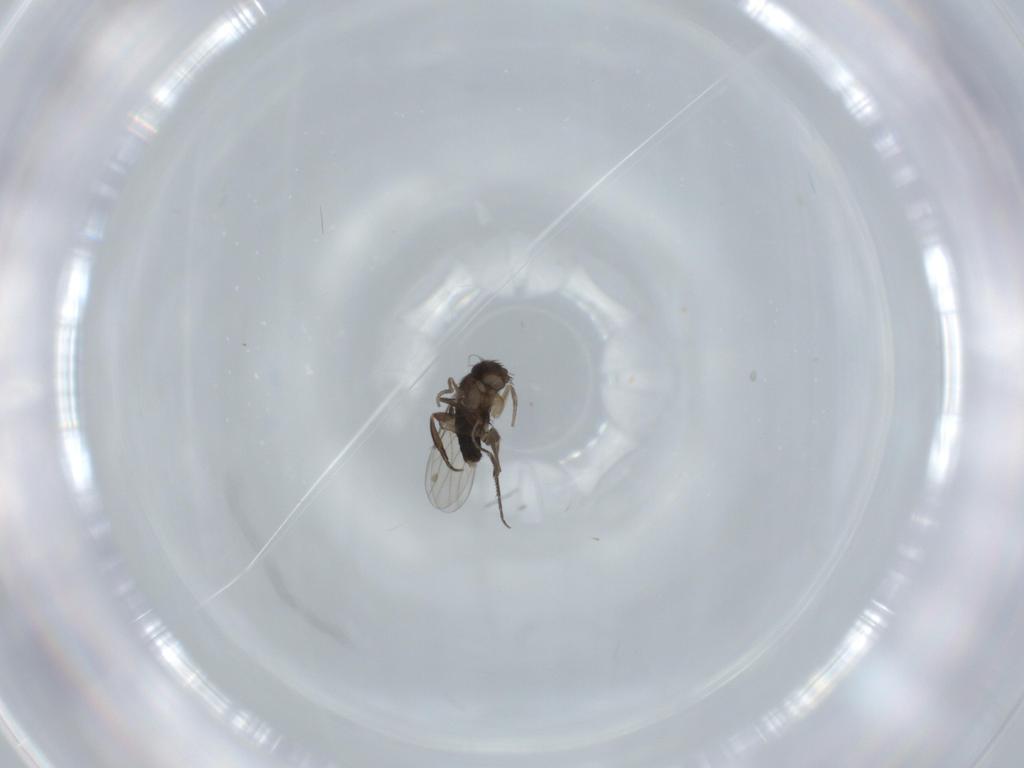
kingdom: Animalia
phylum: Arthropoda
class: Insecta
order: Diptera
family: Phoridae
